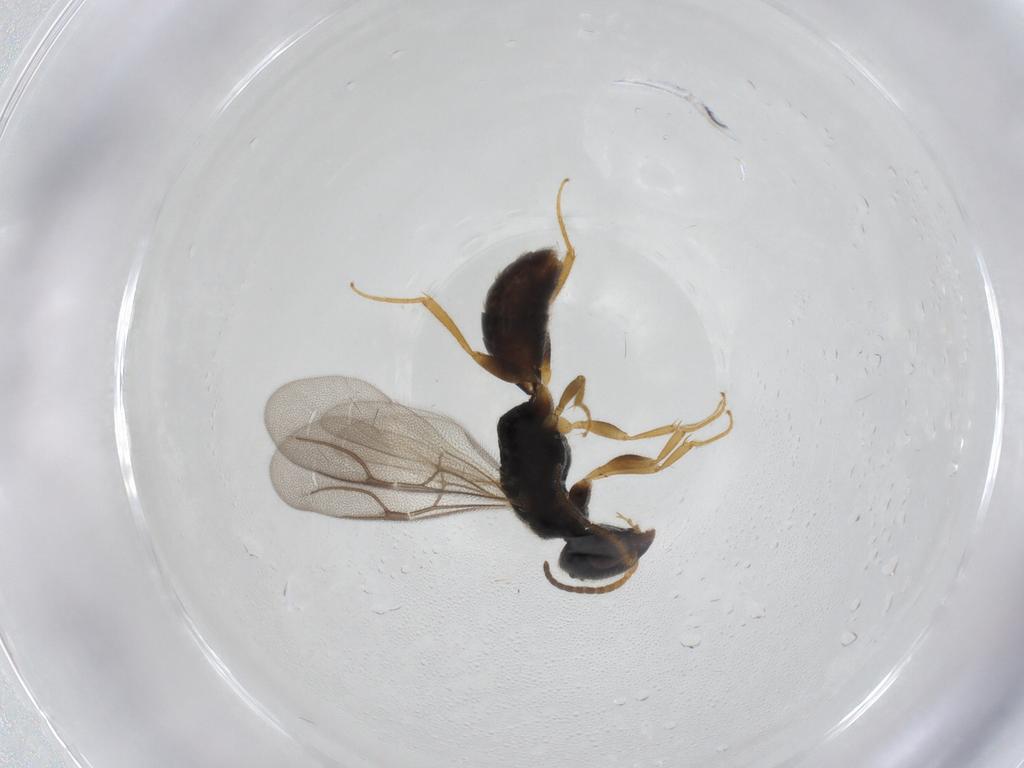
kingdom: Animalia
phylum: Arthropoda
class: Insecta
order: Hymenoptera
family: Bethylidae
